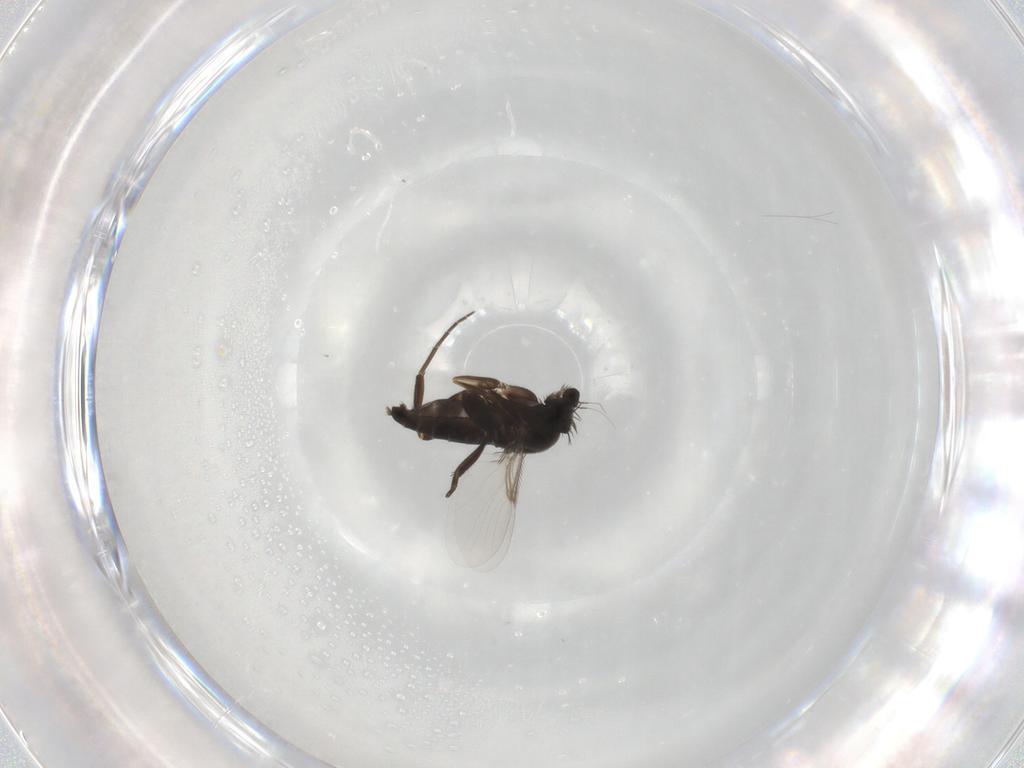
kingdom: Animalia
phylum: Arthropoda
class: Insecta
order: Diptera
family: Phoridae
